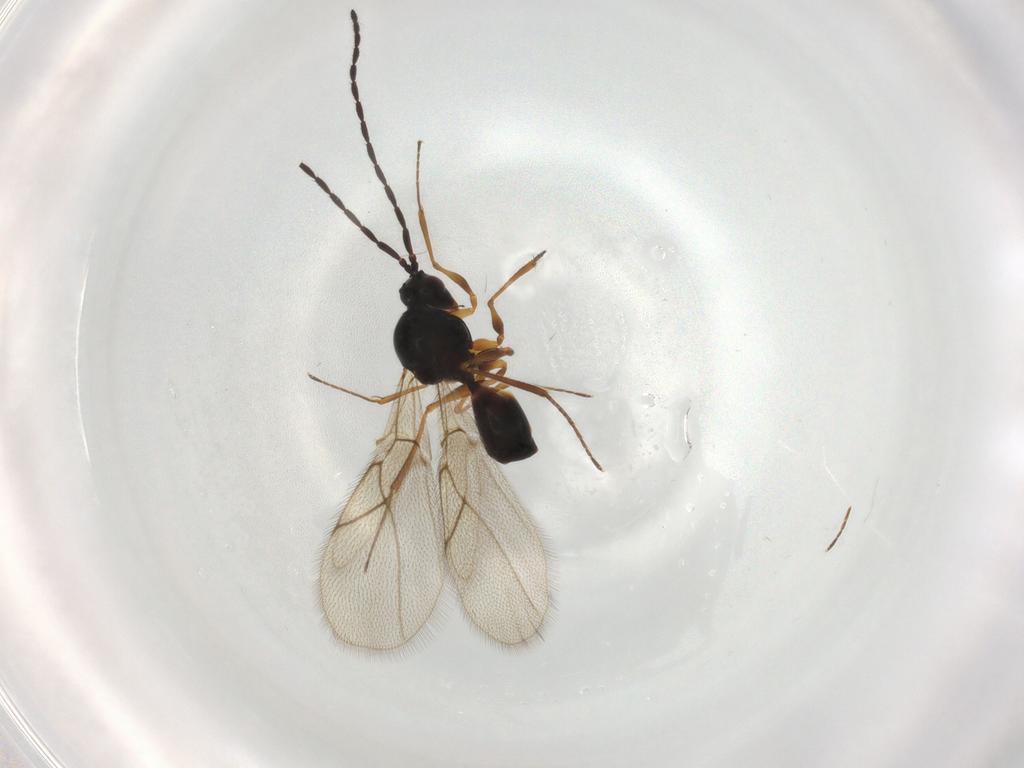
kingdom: Animalia
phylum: Arthropoda
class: Insecta
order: Hymenoptera
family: Figitidae
